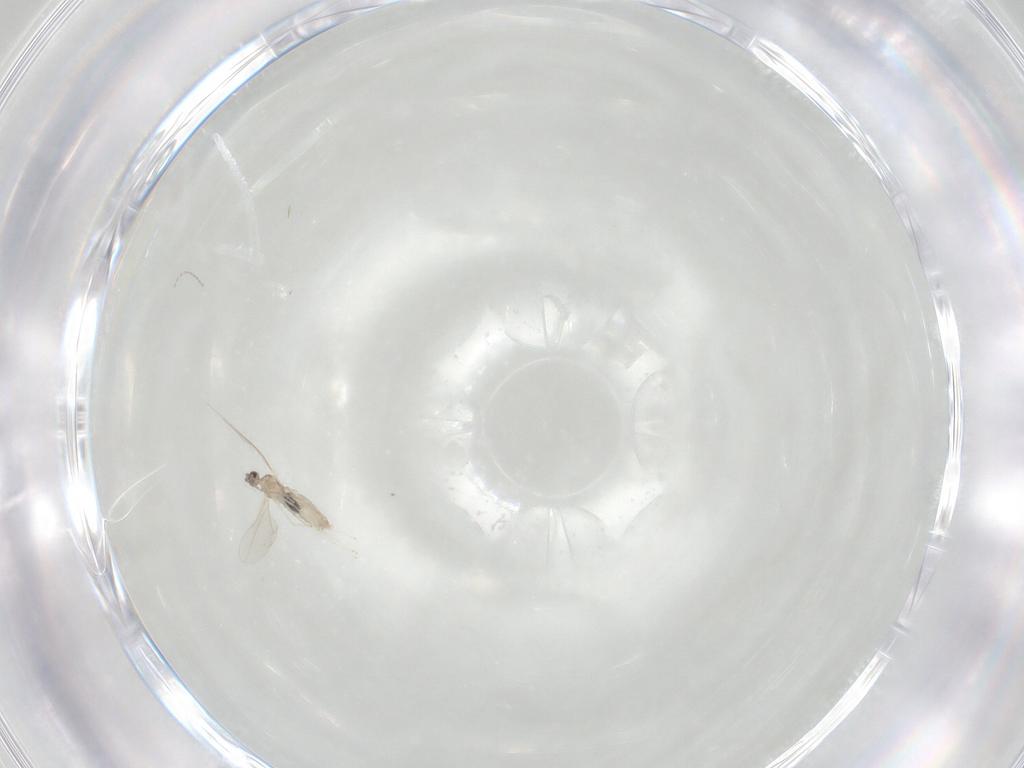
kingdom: Animalia
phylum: Arthropoda
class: Insecta
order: Diptera
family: Cecidomyiidae
